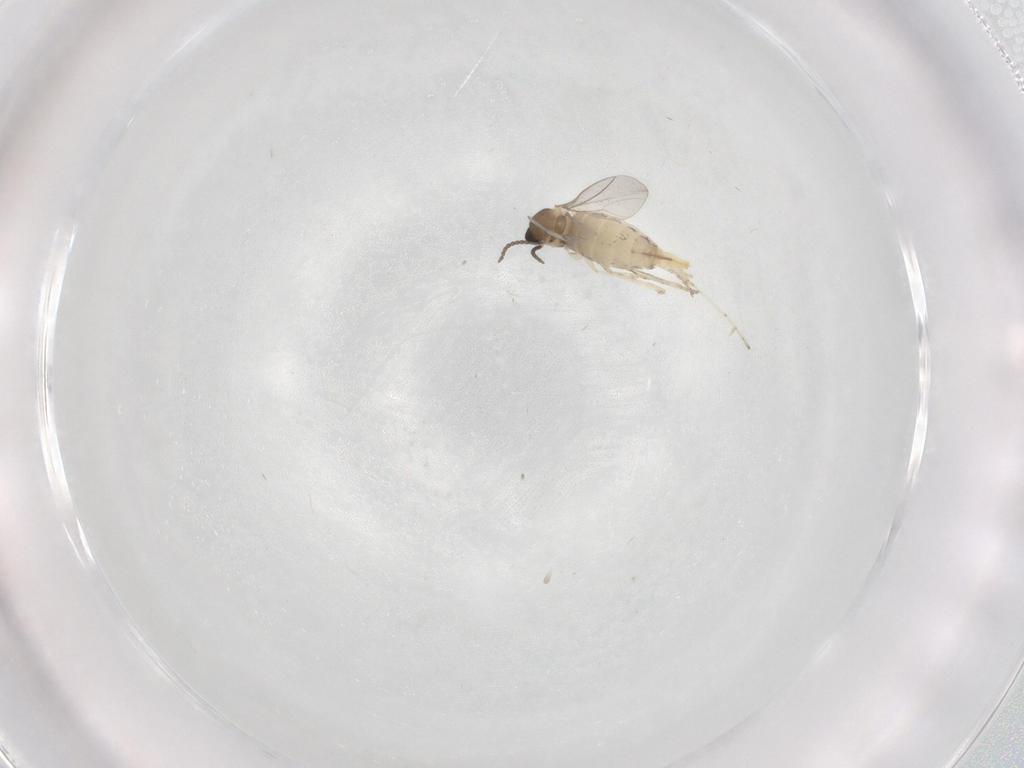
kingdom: Animalia
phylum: Arthropoda
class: Insecta
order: Diptera
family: Cecidomyiidae
